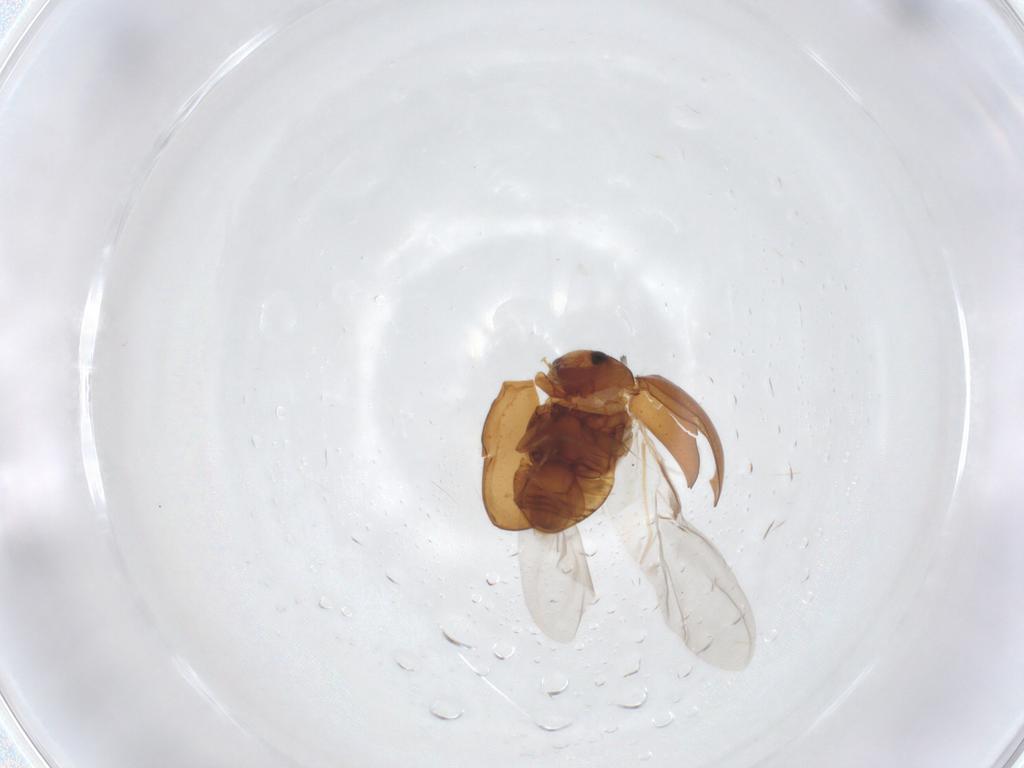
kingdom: Animalia
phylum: Arthropoda
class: Insecta
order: Coleoptera
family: Coccinellidae
